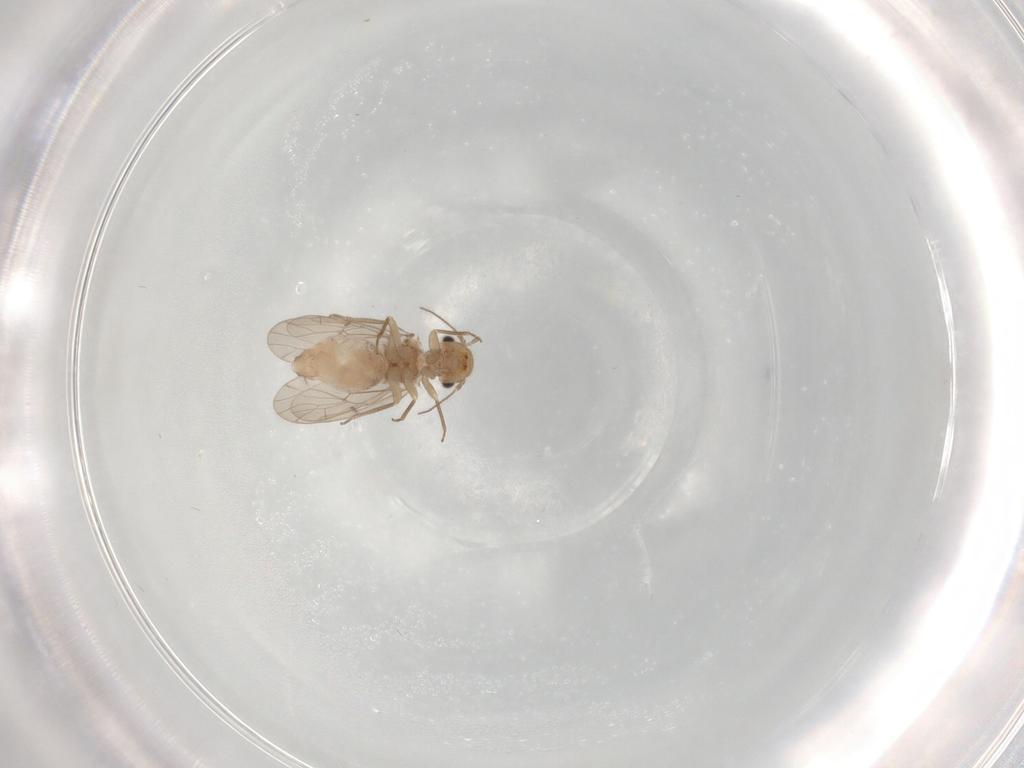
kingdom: Animalia
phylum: Arthropoda
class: Insecta
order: Psocodea
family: Ectopsocidae
